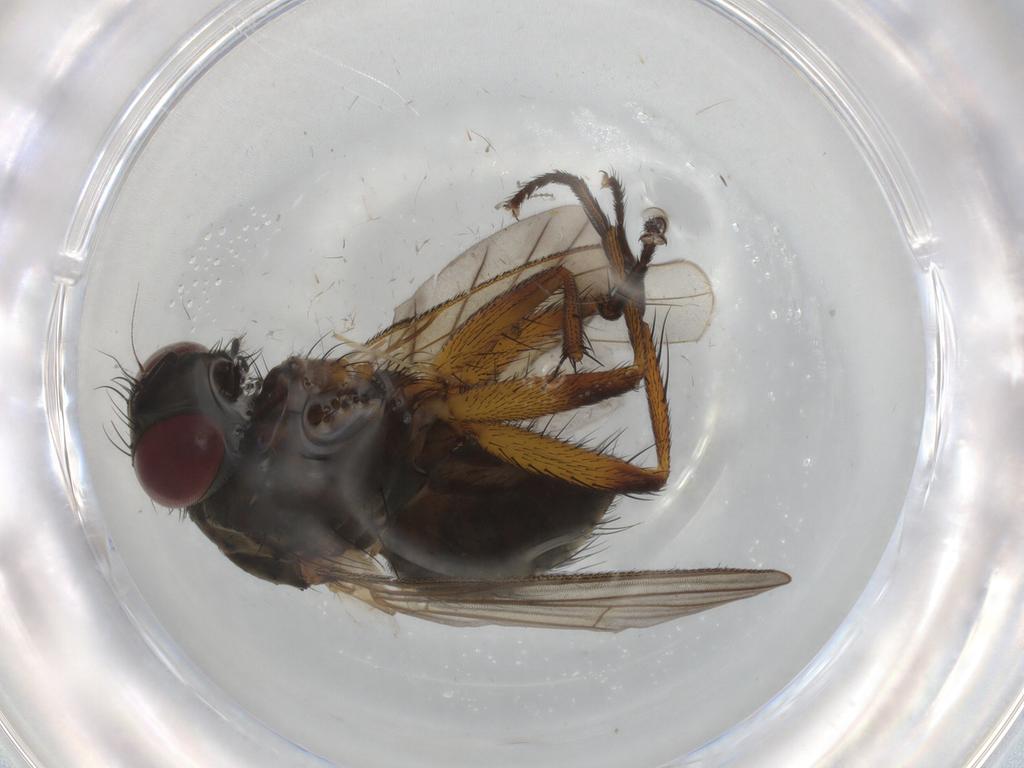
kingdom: Animalia
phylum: Arthropoda
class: Insecta
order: Diptera
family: Muscidae
